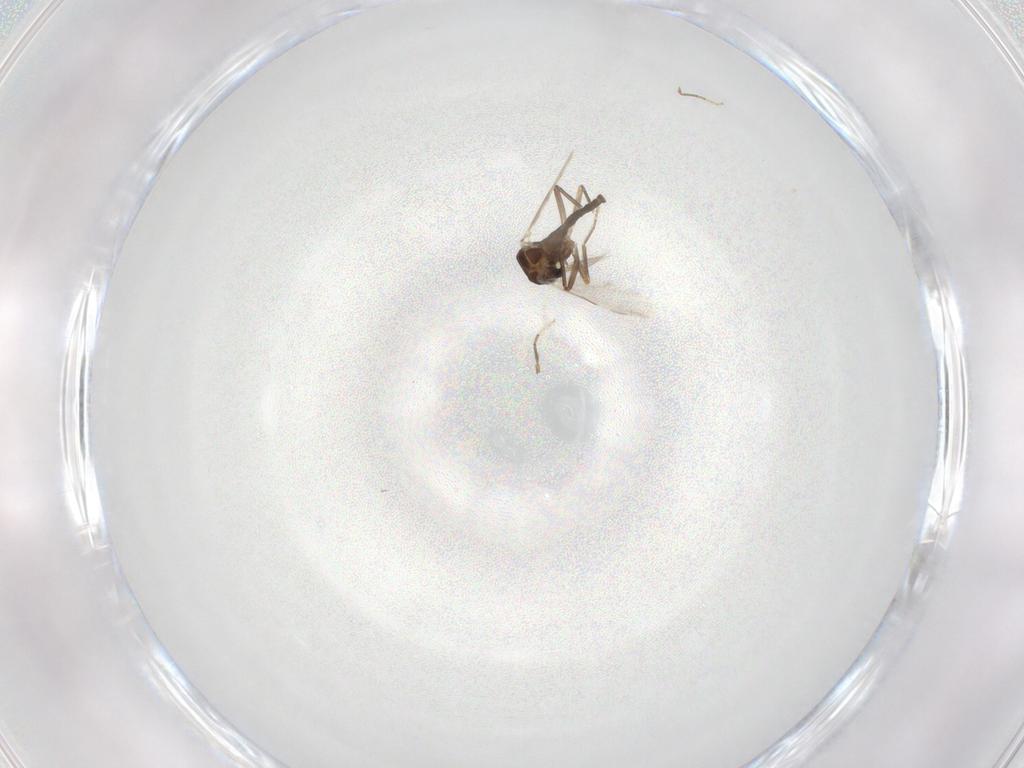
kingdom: Animalia
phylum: Arthropoda
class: Insecta
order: Diptera
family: Ceratopogonidae
